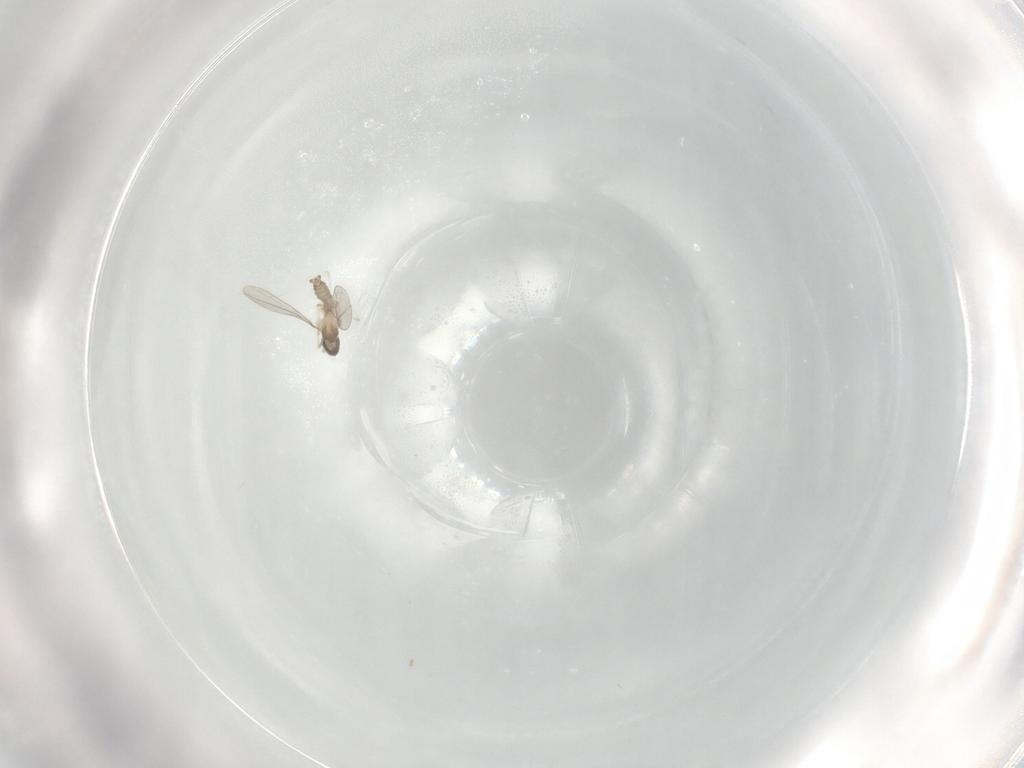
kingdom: Animalia
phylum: Arthropoda
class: Insecta
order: Diptera
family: Cecidomyiidae
